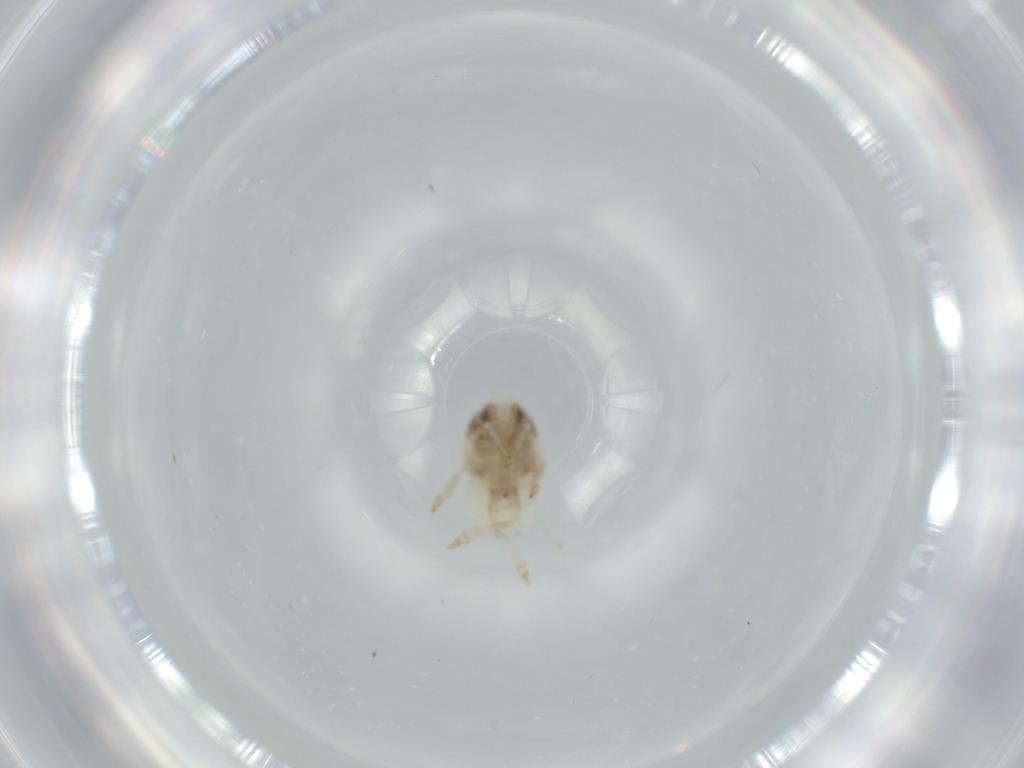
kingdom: Animalia
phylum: Arthropoda
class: Insecta
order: Hemiptera
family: Acanaloniidae
